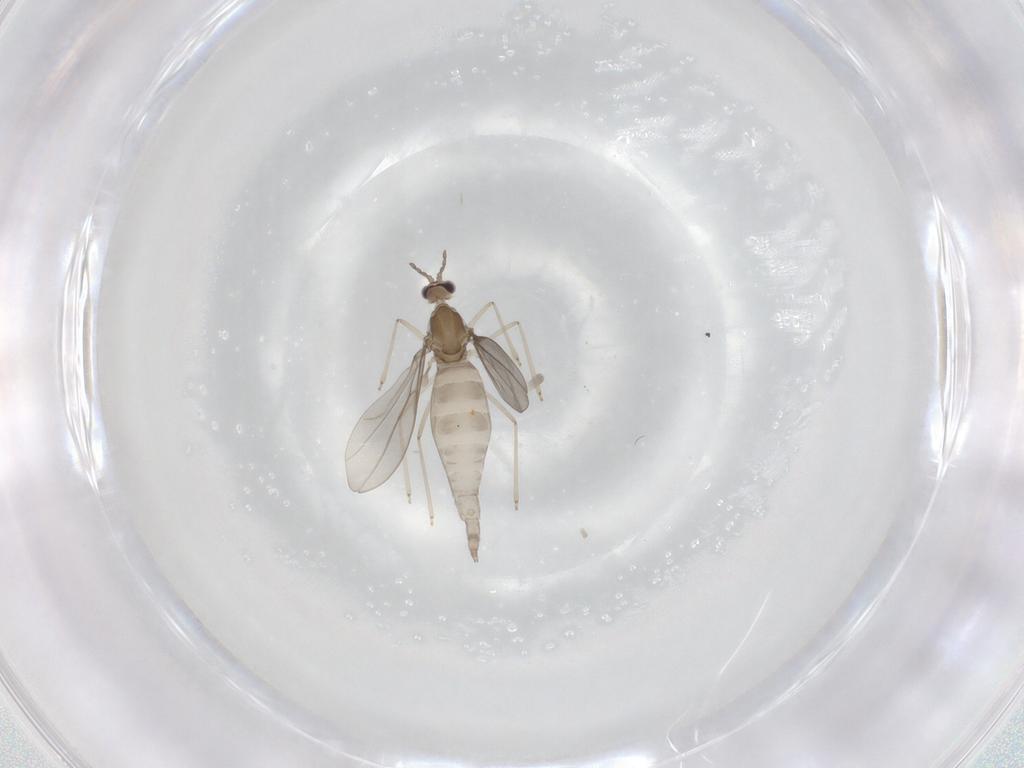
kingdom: Animalia
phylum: Arthropoda
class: Insecta
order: Diptera
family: Cecidomyiidae
